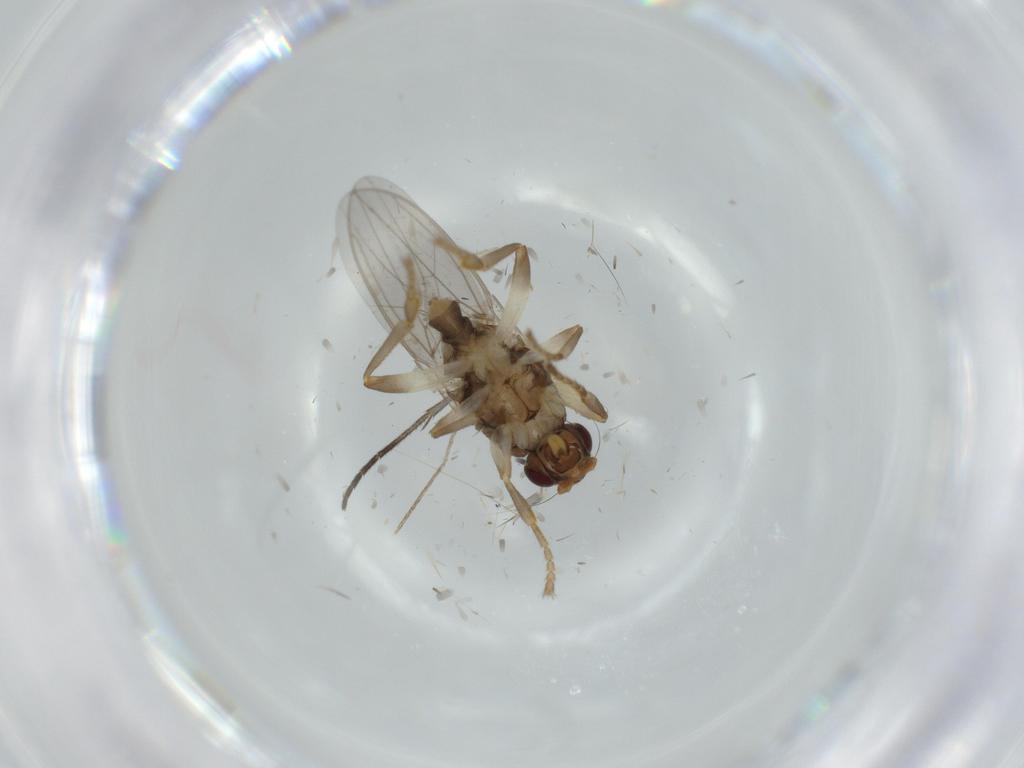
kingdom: Animalia
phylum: Arthropoda
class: Insecta
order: Diptera
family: Sphaeroceridae
